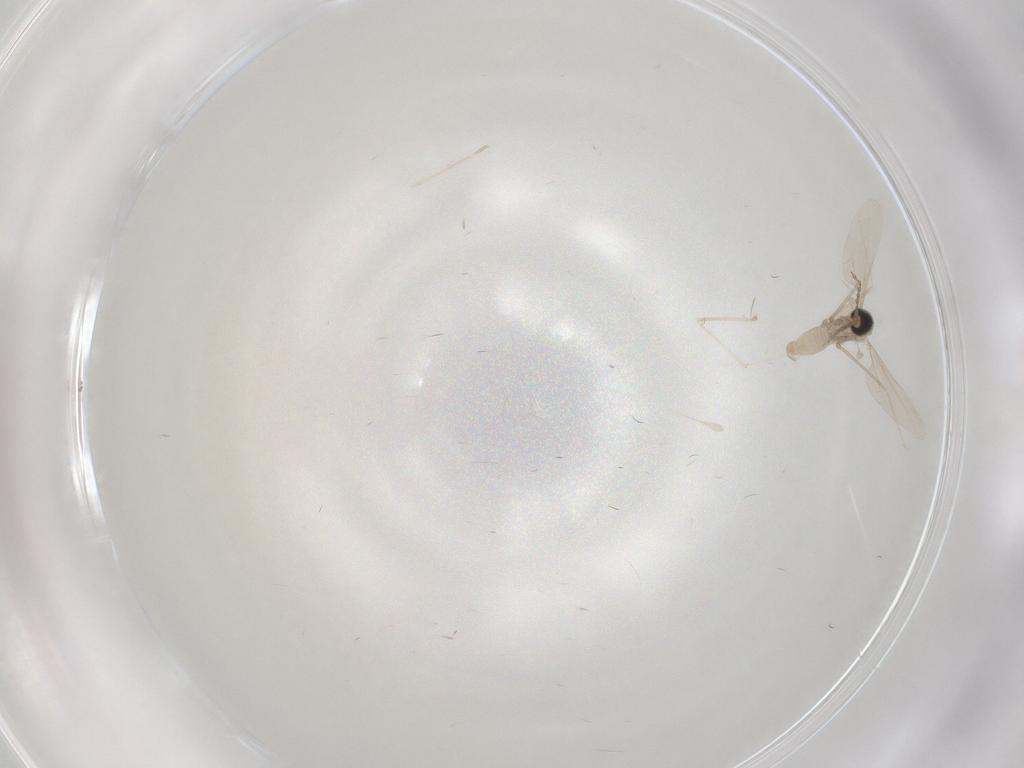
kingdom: Animalia
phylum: Arthropoda
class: Insecta
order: Diptera
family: Cecidomyiidae
